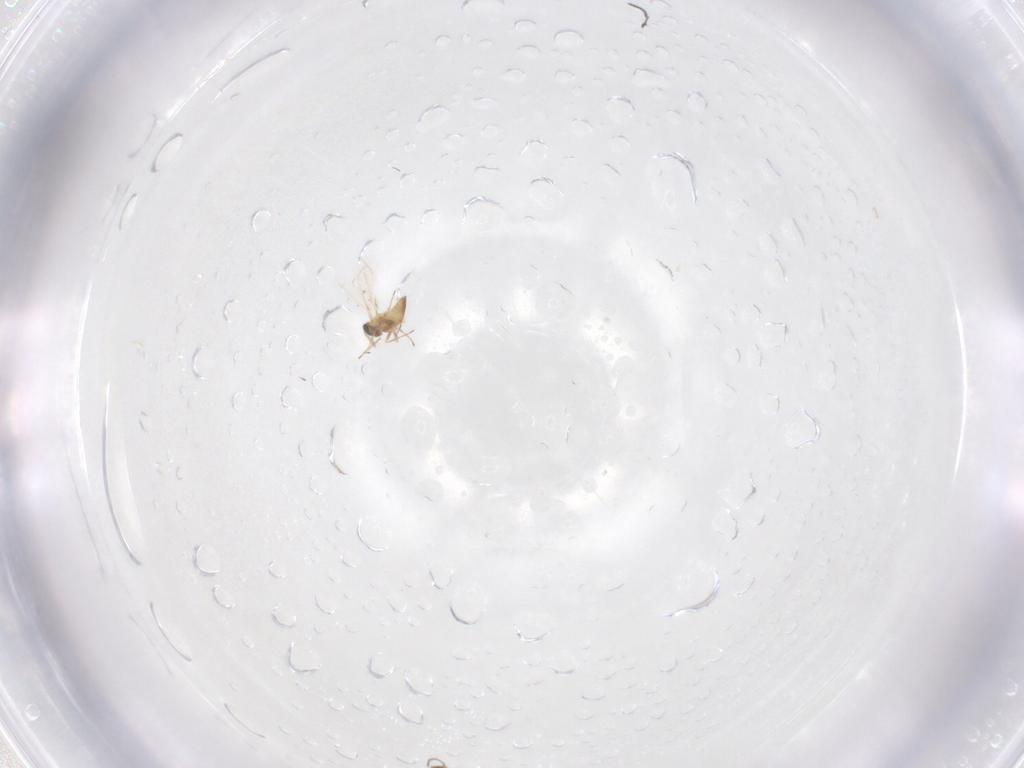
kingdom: Animalia
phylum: Arthropoda
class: Insecta
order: Hymenoptera
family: Trichogrammatidae
